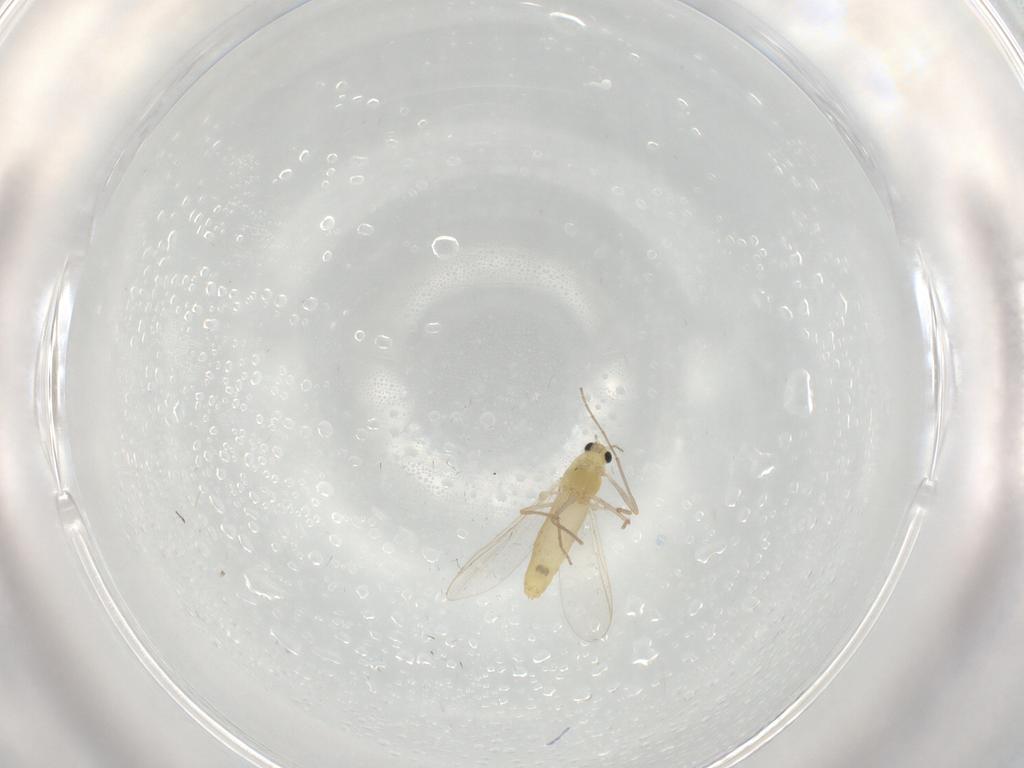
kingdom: Animalia
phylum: Arthropoda
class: Insecta
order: Diptera
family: Chironomidae
